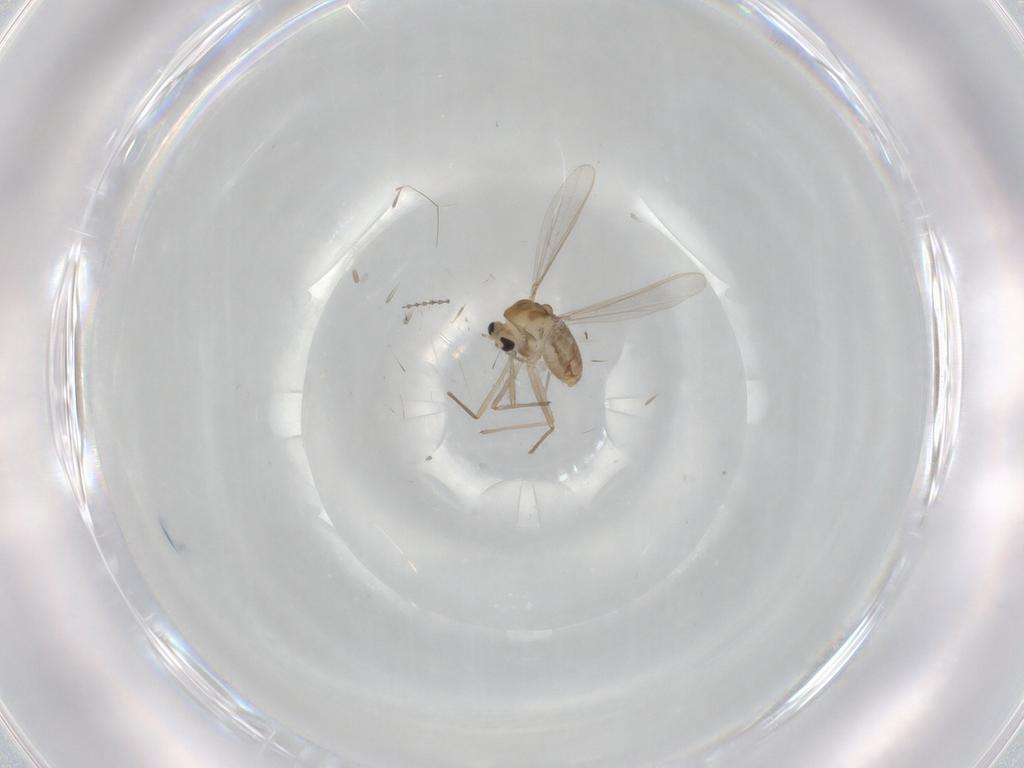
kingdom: Animalia
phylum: Arthropoda
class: Insecta
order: Diptera
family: Chironomidae
